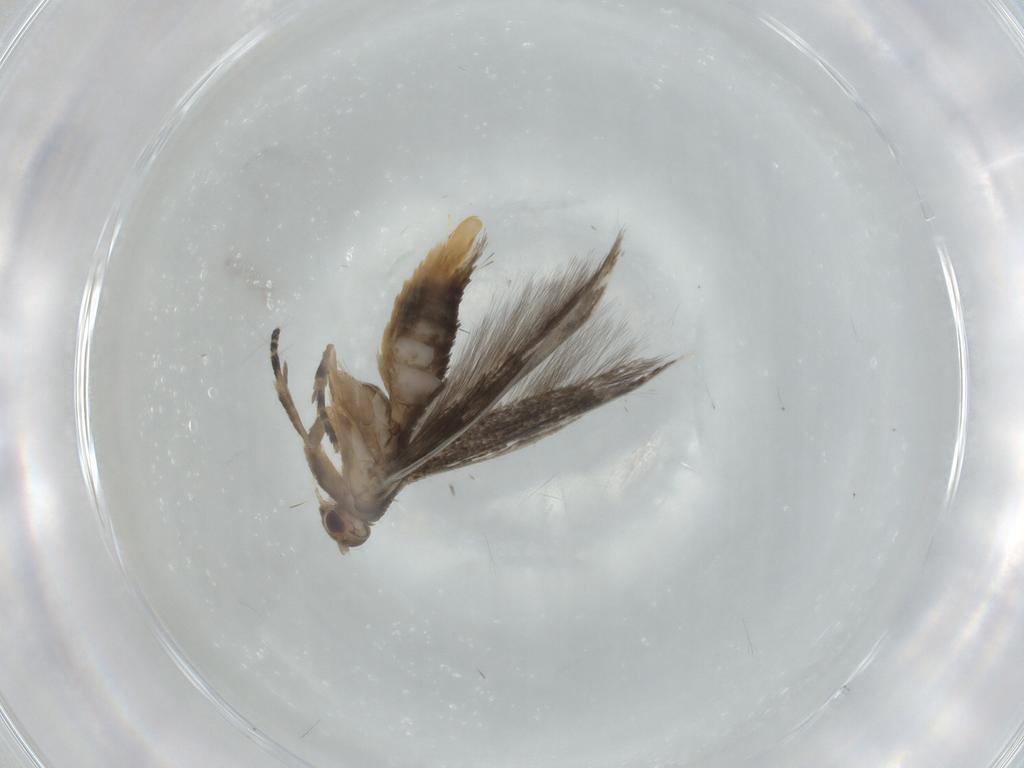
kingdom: Animalia
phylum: Arthropoda
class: Insecta
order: Lepidoptera
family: Elachistidae
